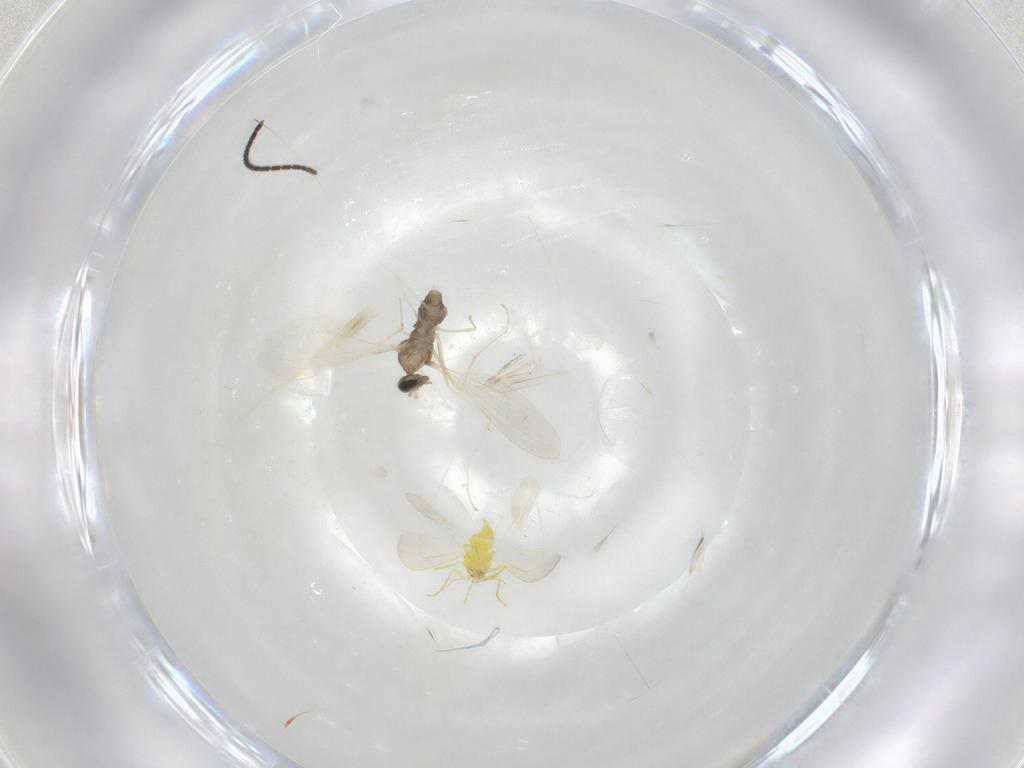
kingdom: Animalia
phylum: Arthropoda
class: Insecta
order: Diptera
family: Cecidomyiidae
